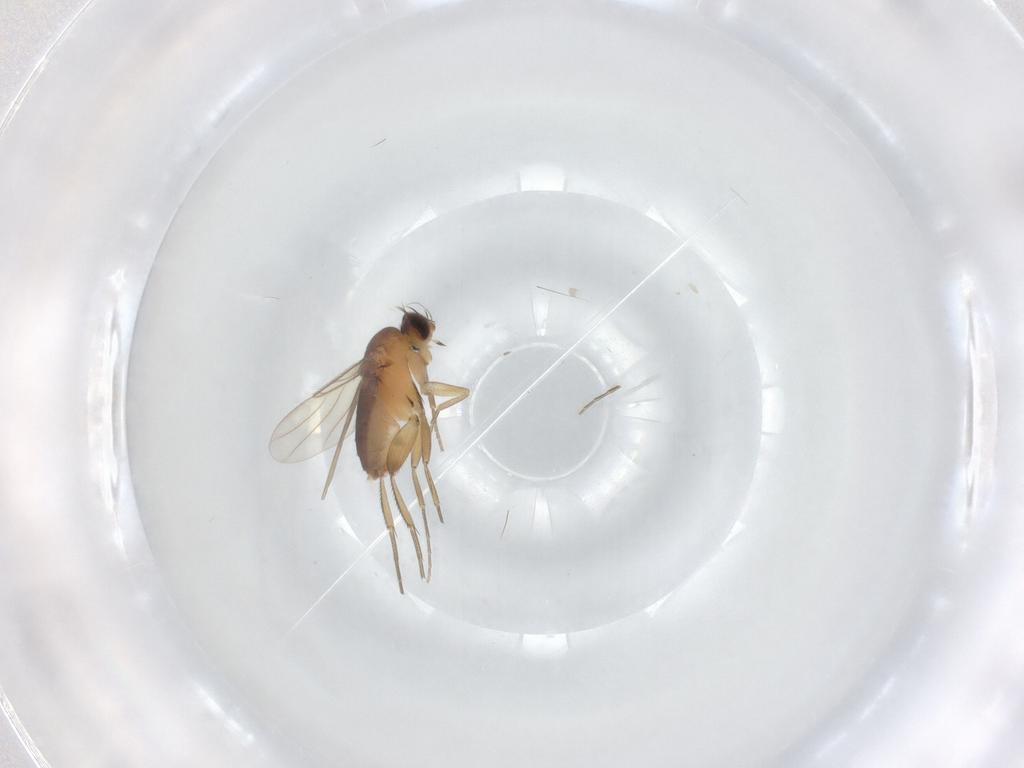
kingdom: Animalia
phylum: Arthropoda
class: Insecta
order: Diptera
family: Phoridae
